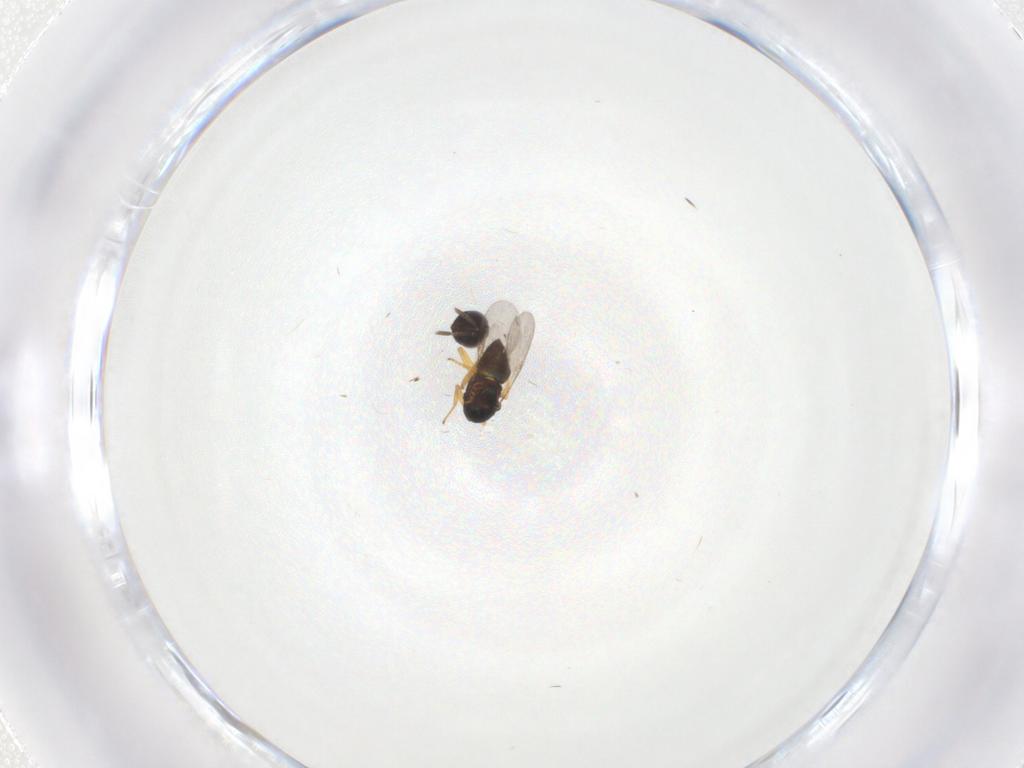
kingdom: Animalia
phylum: Arthropoda
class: Insecta
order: Hymenoptera
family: Encyrtidae
